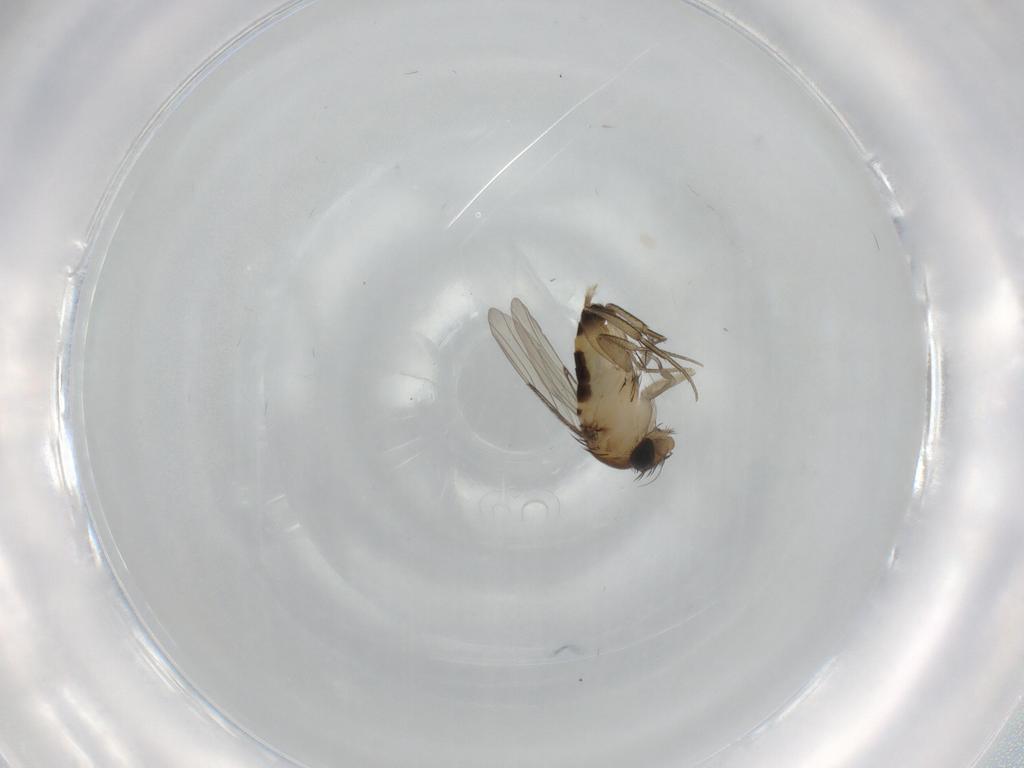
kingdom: Animalia
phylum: Arthropoda
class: Insecta
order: Diptera
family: Phoridae
